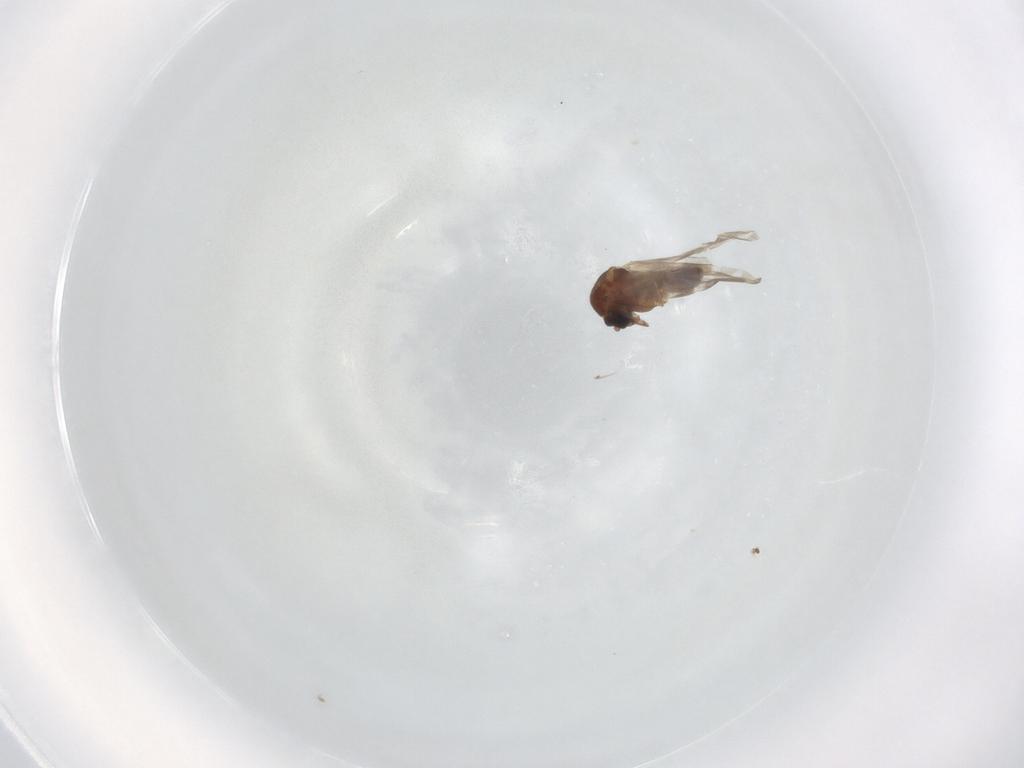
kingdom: Animalia
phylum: Arthropoda
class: Insecta
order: Diptera
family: Ceratopogonidae
